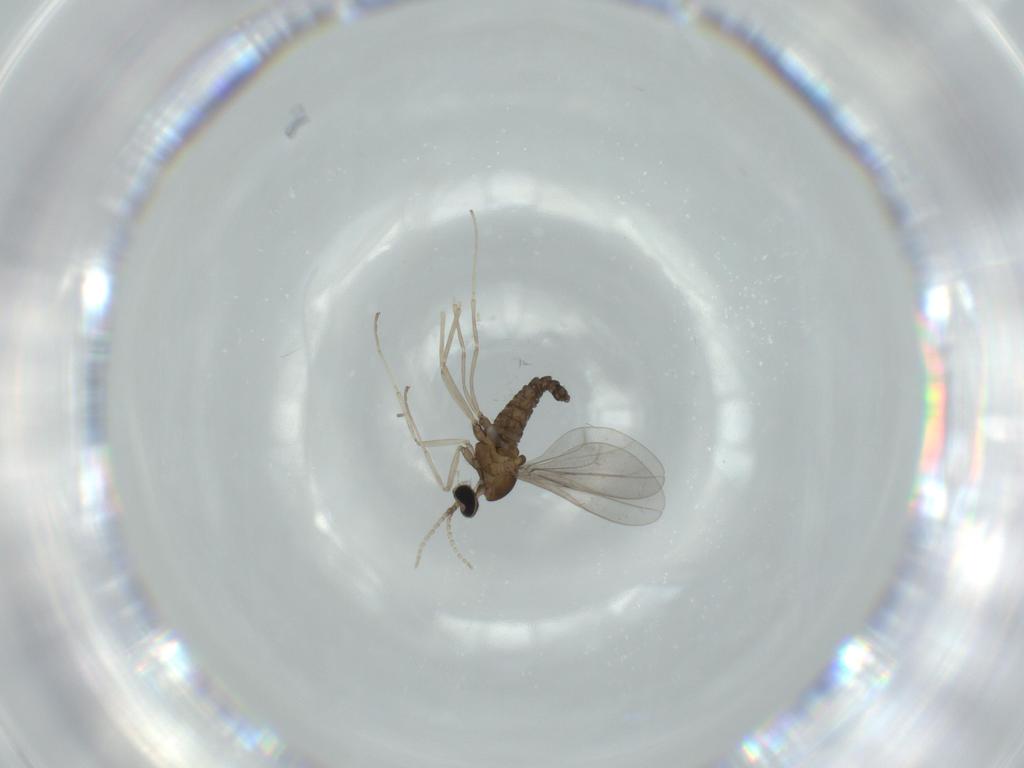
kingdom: Animalia
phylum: Arthropoda
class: Insecta
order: Diptera
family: Cecidomyiidae
